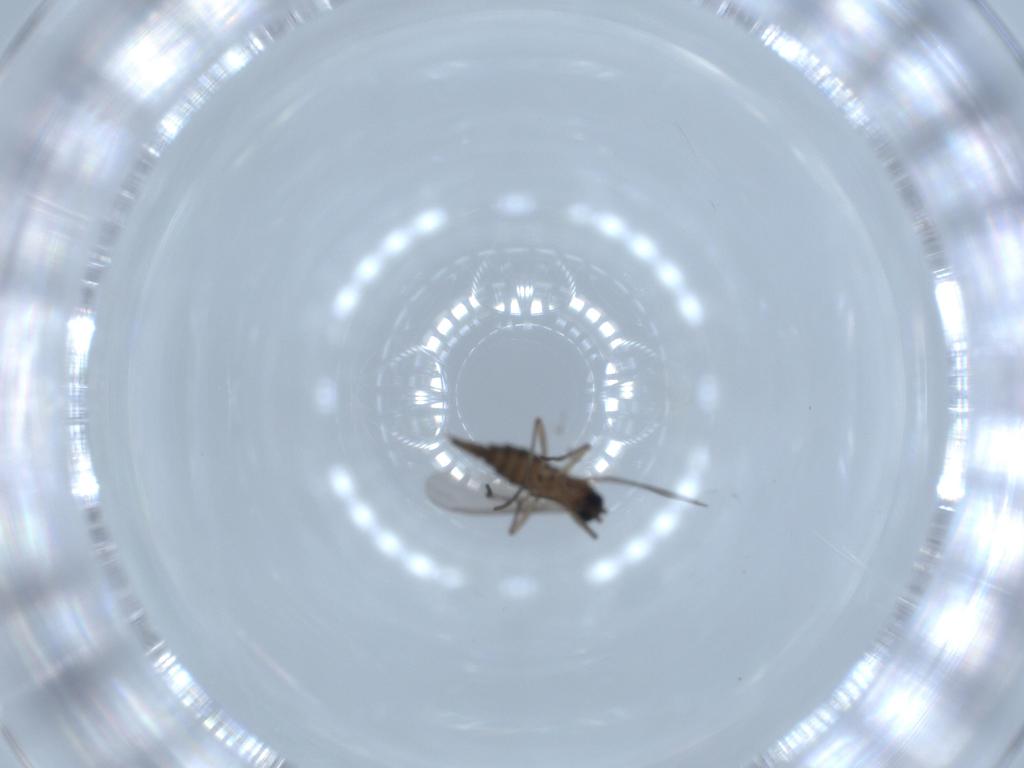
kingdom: Animalia
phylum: Arthropoda
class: Insecta
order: Diptera
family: Sciaridae
